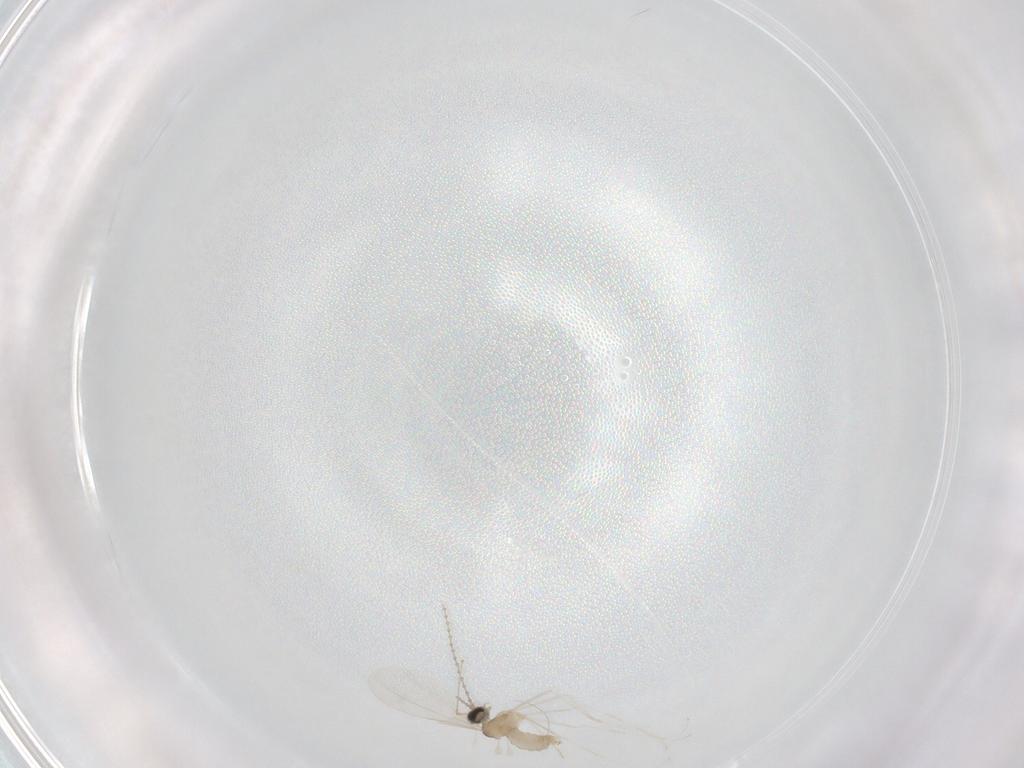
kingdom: Animalia
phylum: Arthropoda
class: Insecta
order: Diptera
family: Cecidomyiidae
